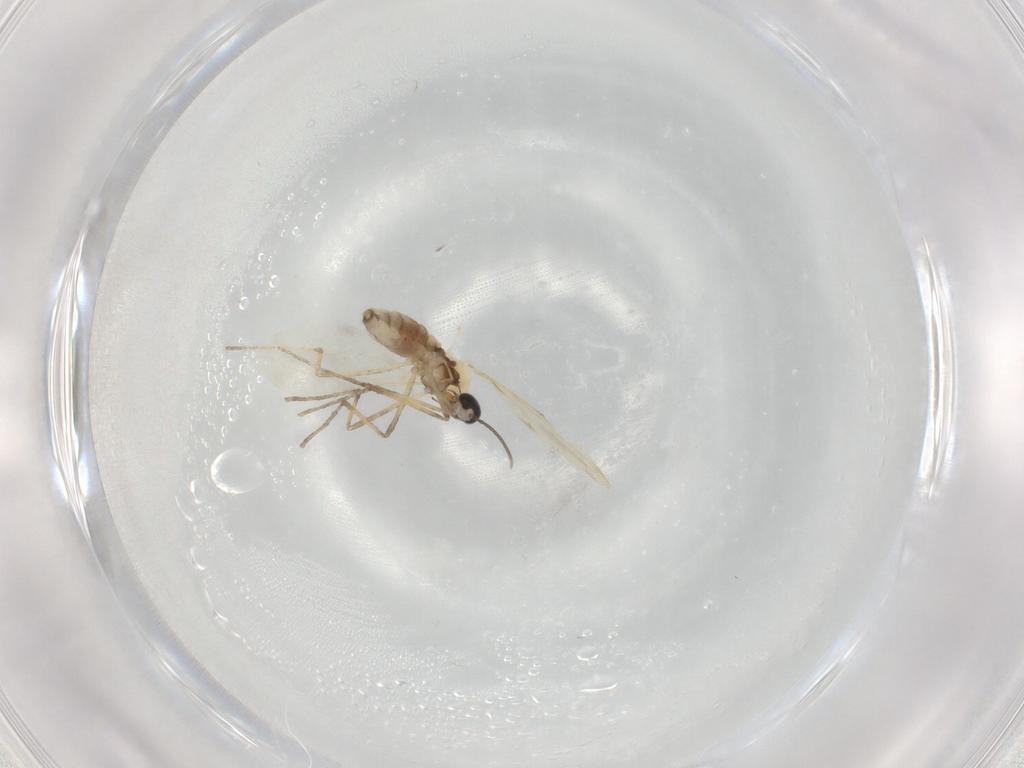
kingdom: Animalia
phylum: Arthropoda
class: Insecta
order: Diptera
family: Cecidomyiidae
